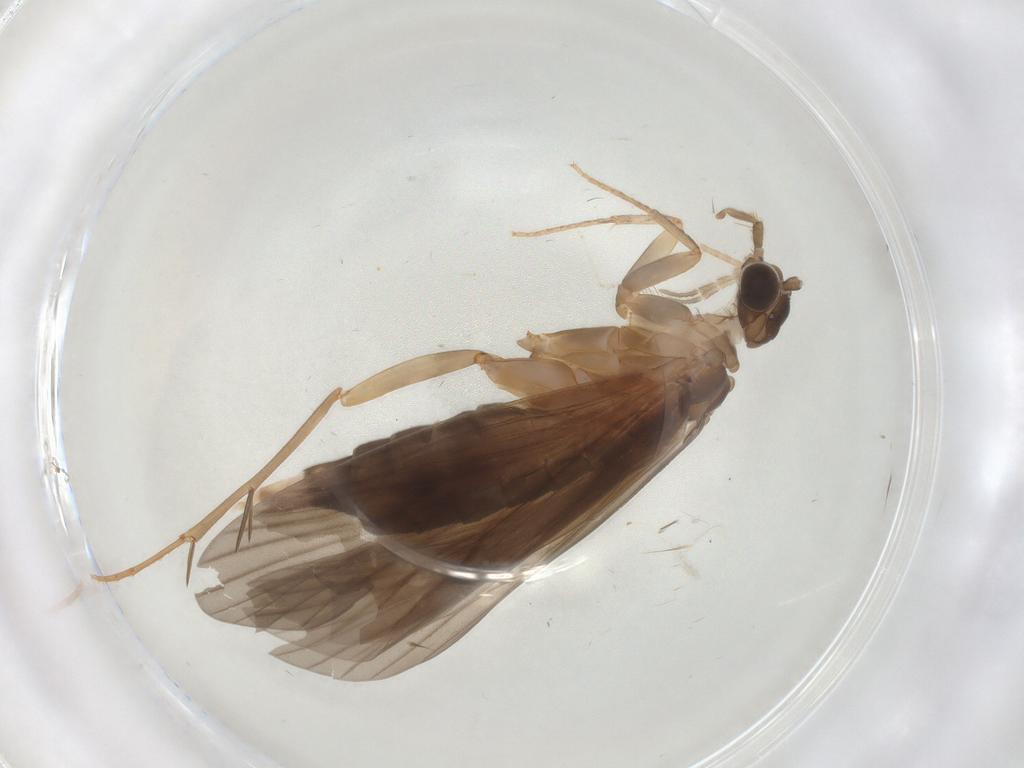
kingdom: Animalia
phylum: Arthropoda
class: Insecta
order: Trichoptera
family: Philopotamidae
